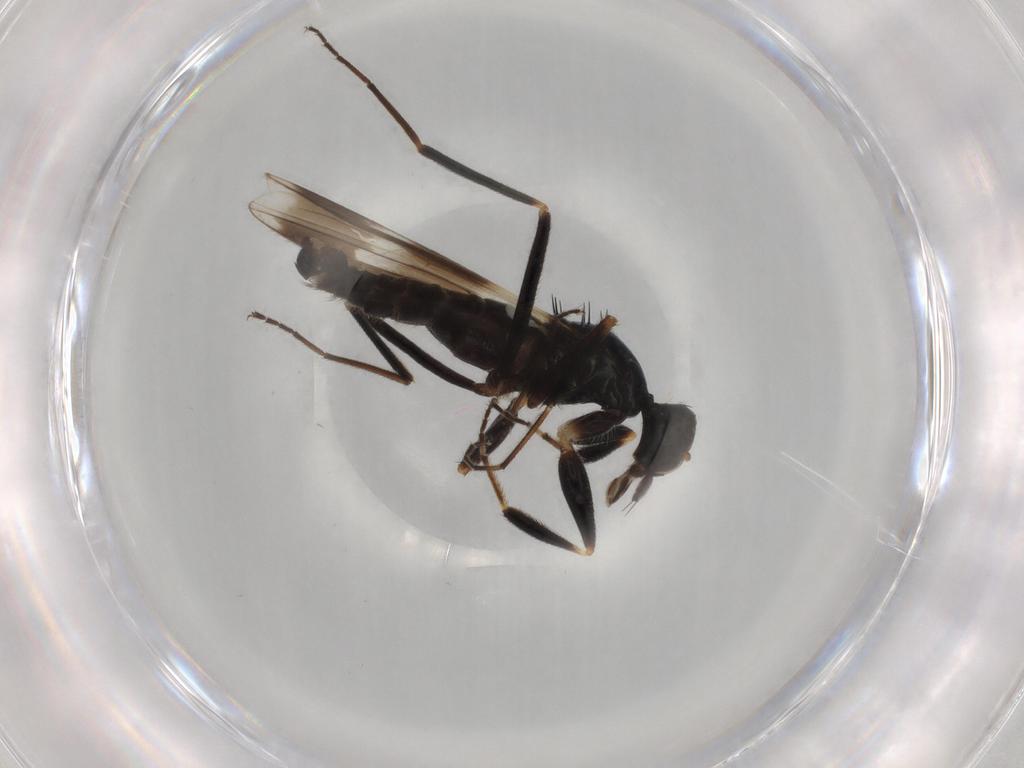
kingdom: Animalia
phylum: Arthropoda
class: Insecta
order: Diptera
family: Hybotidae
